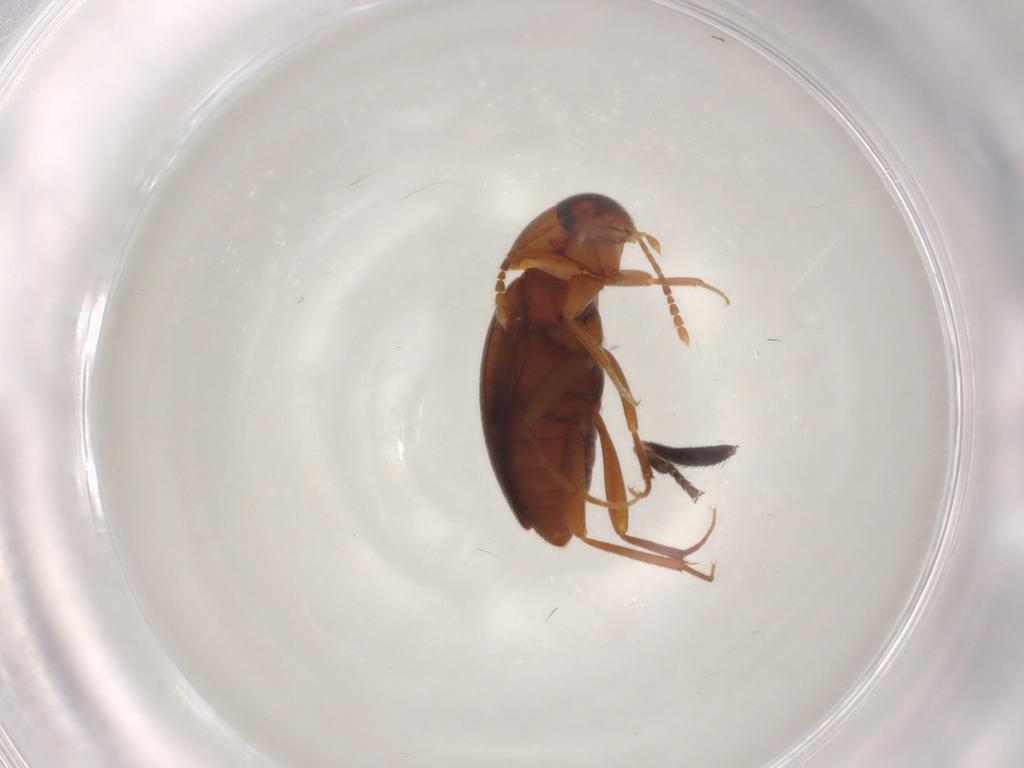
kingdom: Animalia
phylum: Arthropoda
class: Insecta
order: Coleoptera
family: Leiodidae
